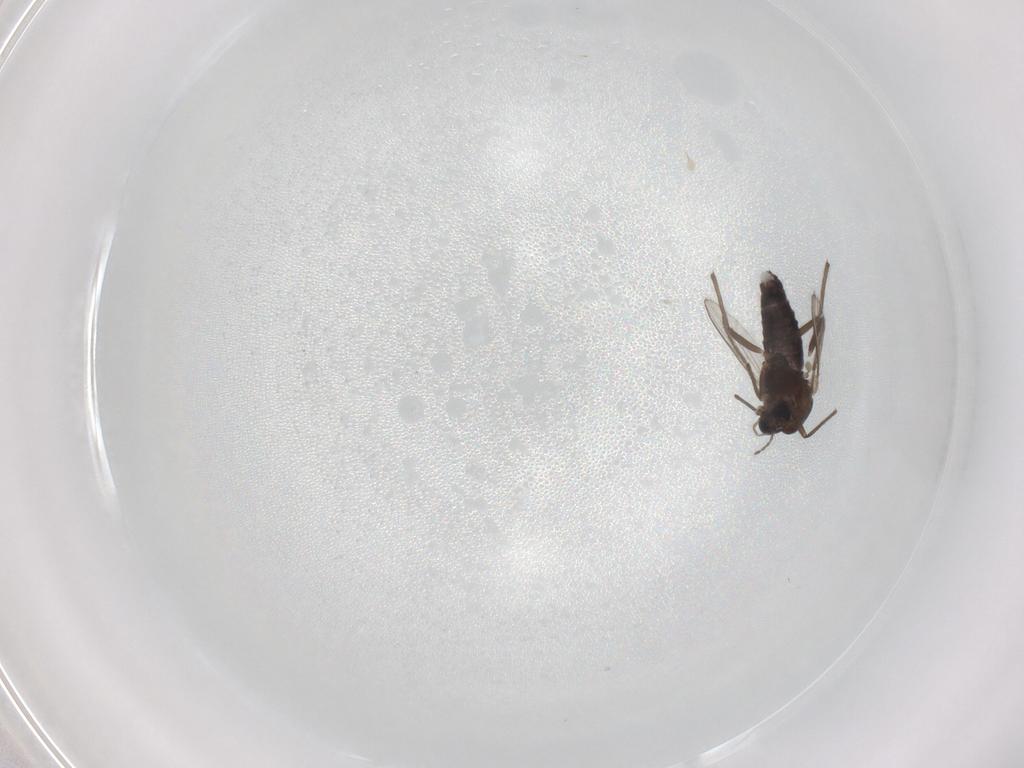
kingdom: Animalia
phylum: Arthropoda
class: Insecta
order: Diptera
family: Cecidomyiidae
